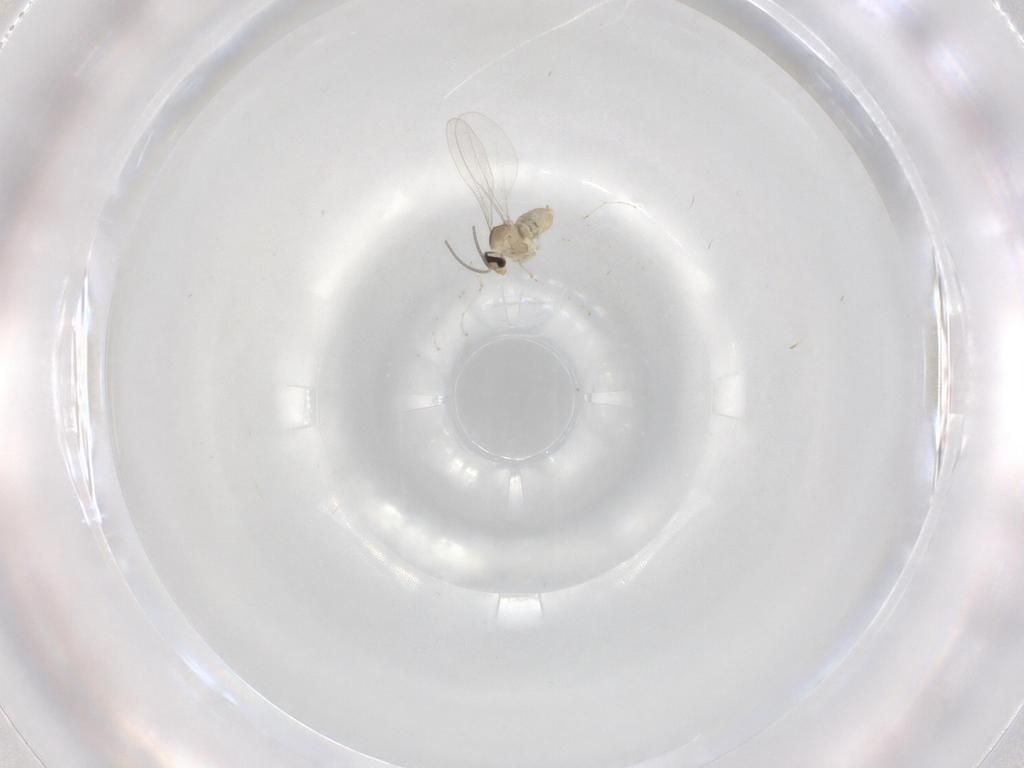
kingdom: Animalia
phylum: Arthropoda
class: Insecta
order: Diptera
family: Cecidomyiidae
